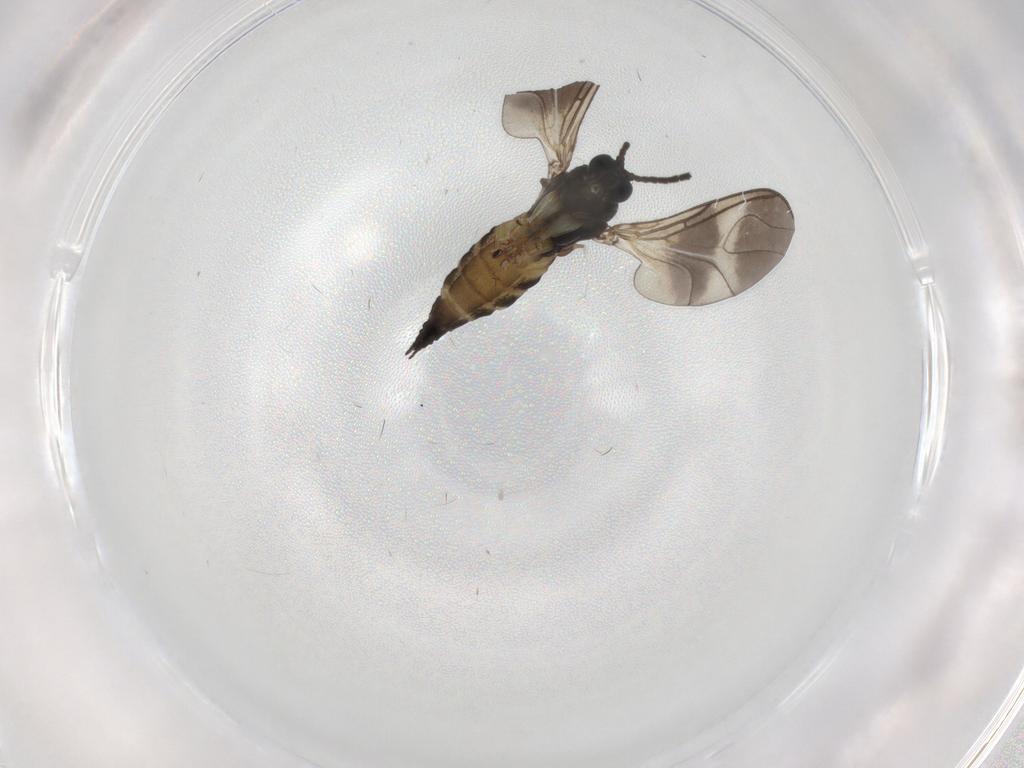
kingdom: Animalia
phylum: Arthropoda
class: Insecta
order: Diptera
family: Sciaridae
